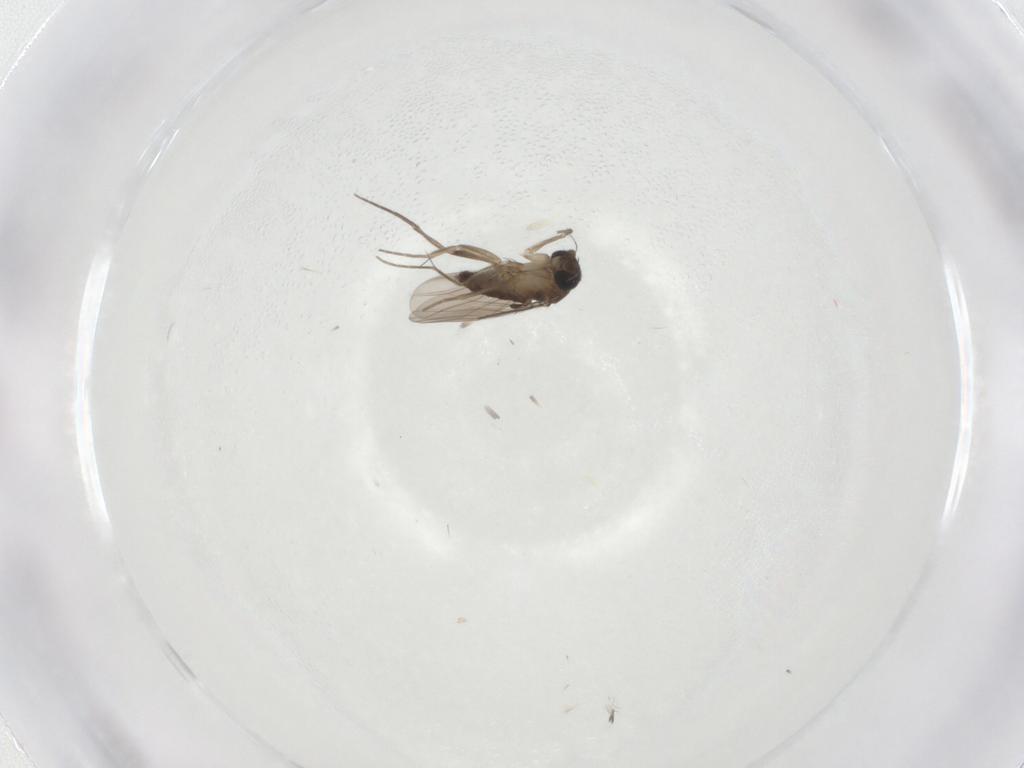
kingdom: Animalia
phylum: Arthropoda
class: Insecta
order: Diptera
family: Phoridae
